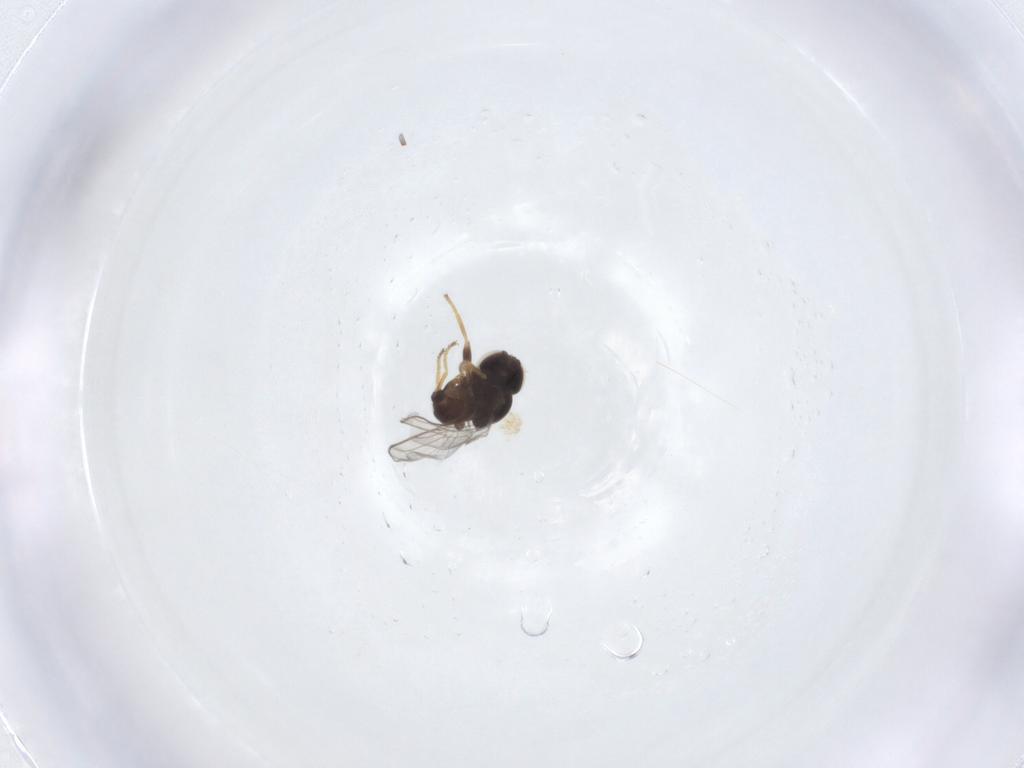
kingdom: Animalia
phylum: Arthropoda
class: Insecta
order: Diptera
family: Chloropidae
